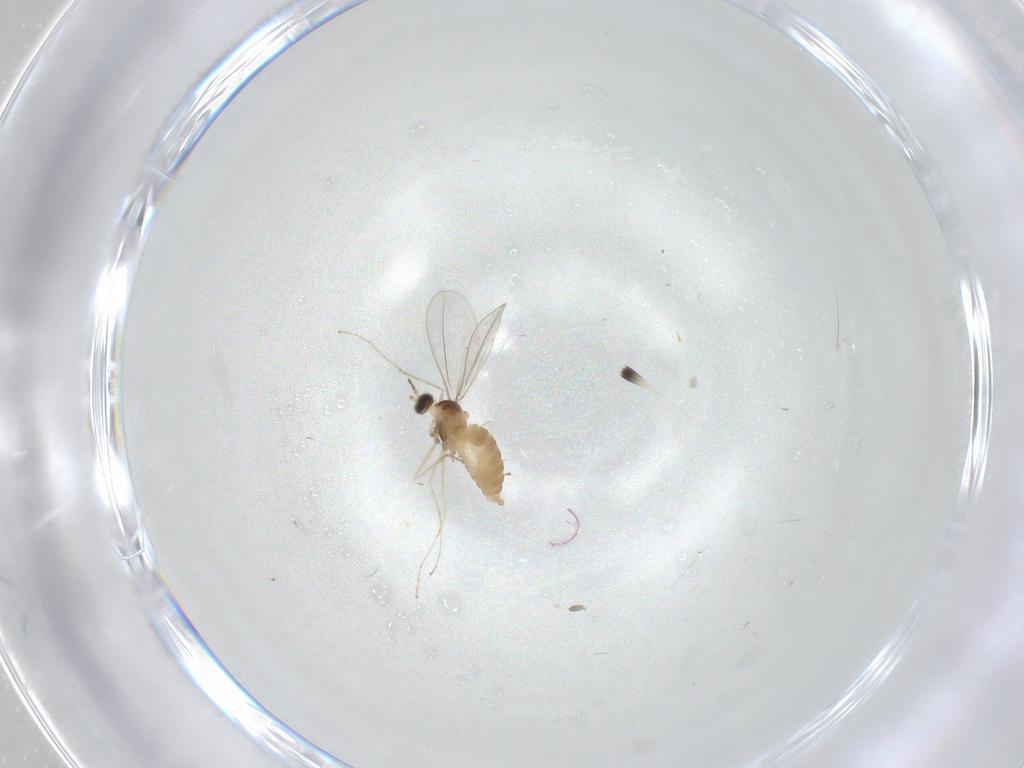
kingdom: Animalia
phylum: Arthropoda
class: Insecta
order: Diptera
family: Cecidomyiidae
